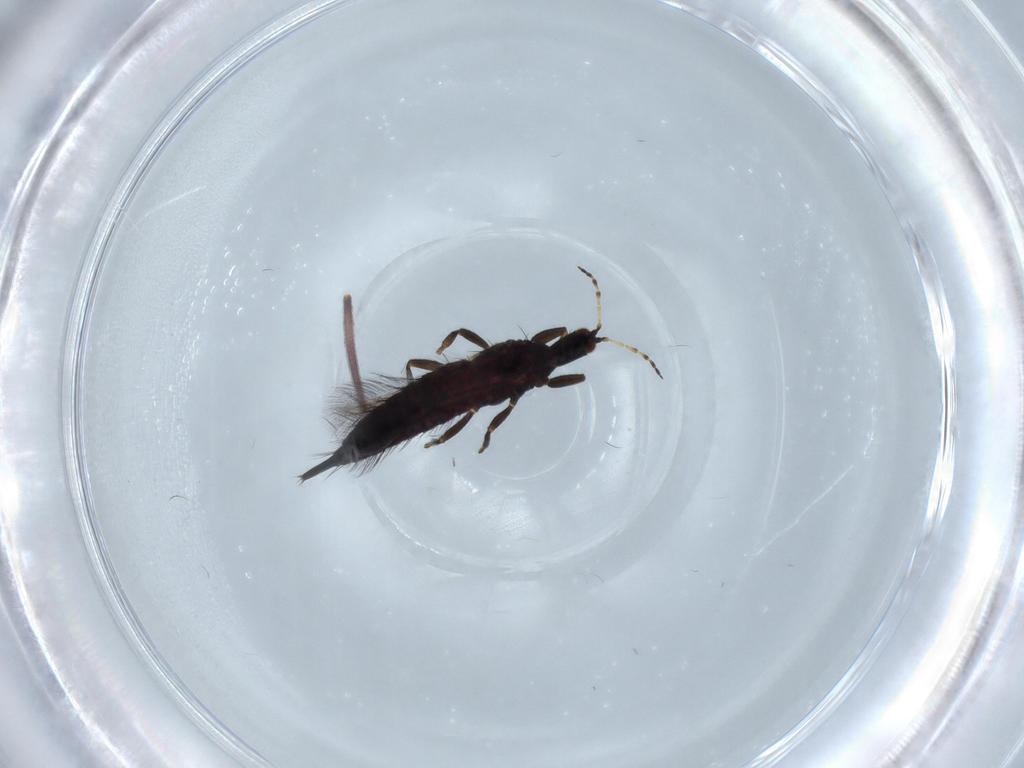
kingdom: Animalia
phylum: Arthropoda
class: Insecta
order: Thysanoptera
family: Phlaeothripidae
